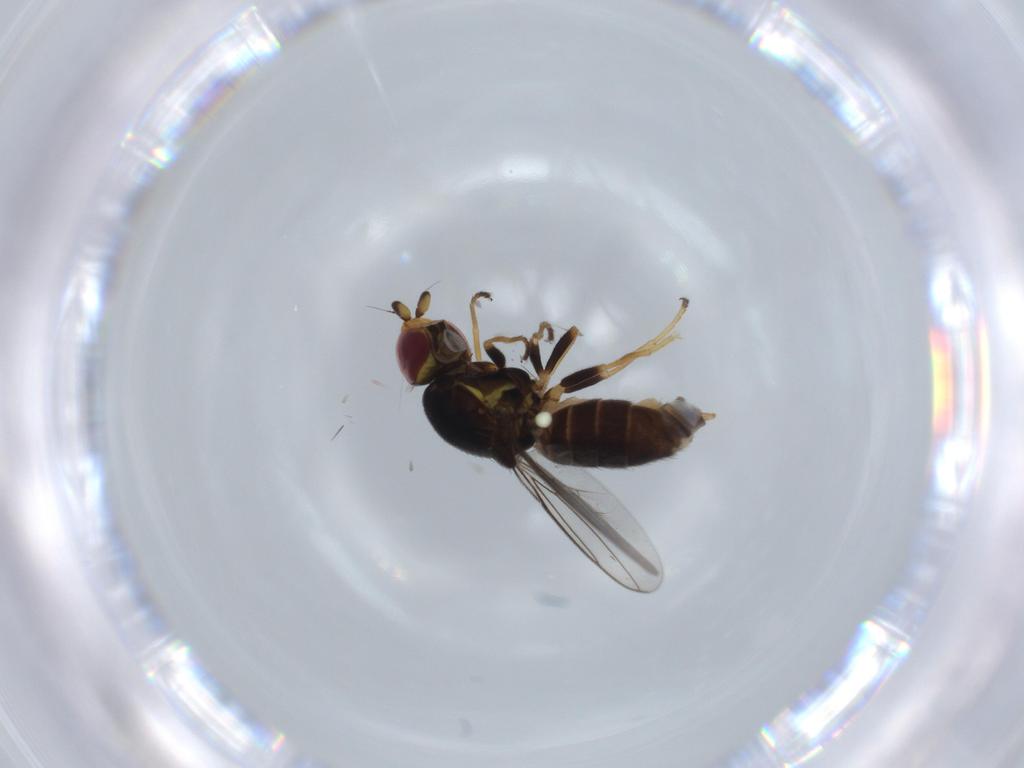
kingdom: Animalia
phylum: Arthropoda
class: Insecta
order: Diptera
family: Chloropidae
